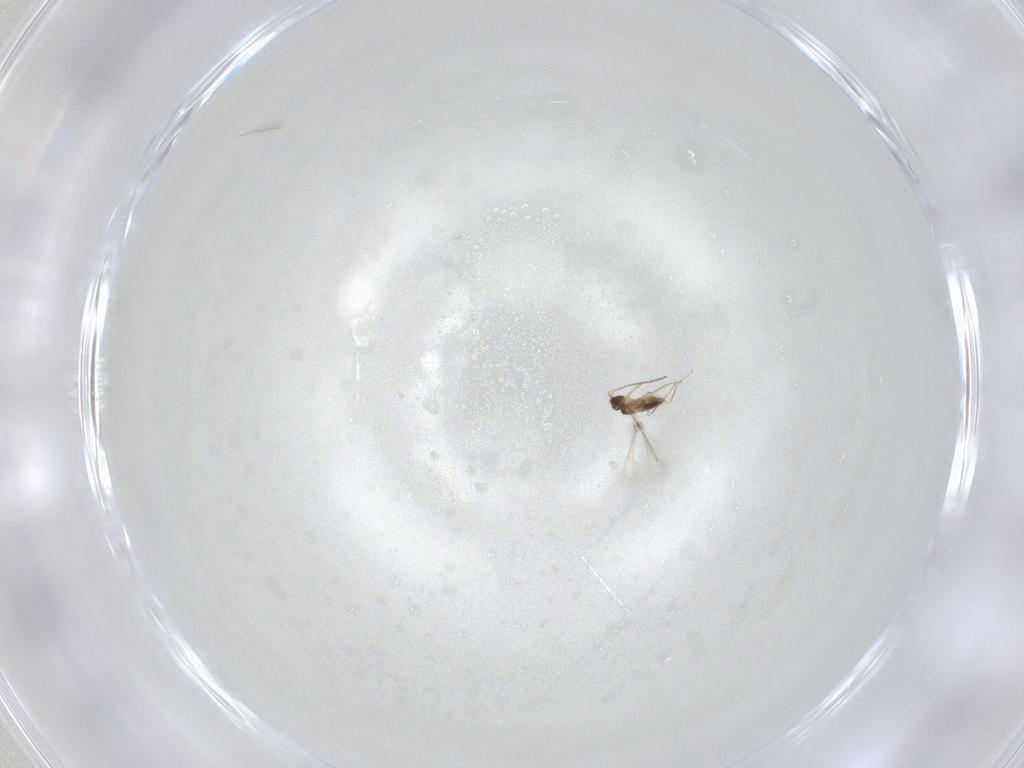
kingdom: Animalia
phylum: Arthropoda
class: Insecta
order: Hymenoptera
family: Mymaridae
